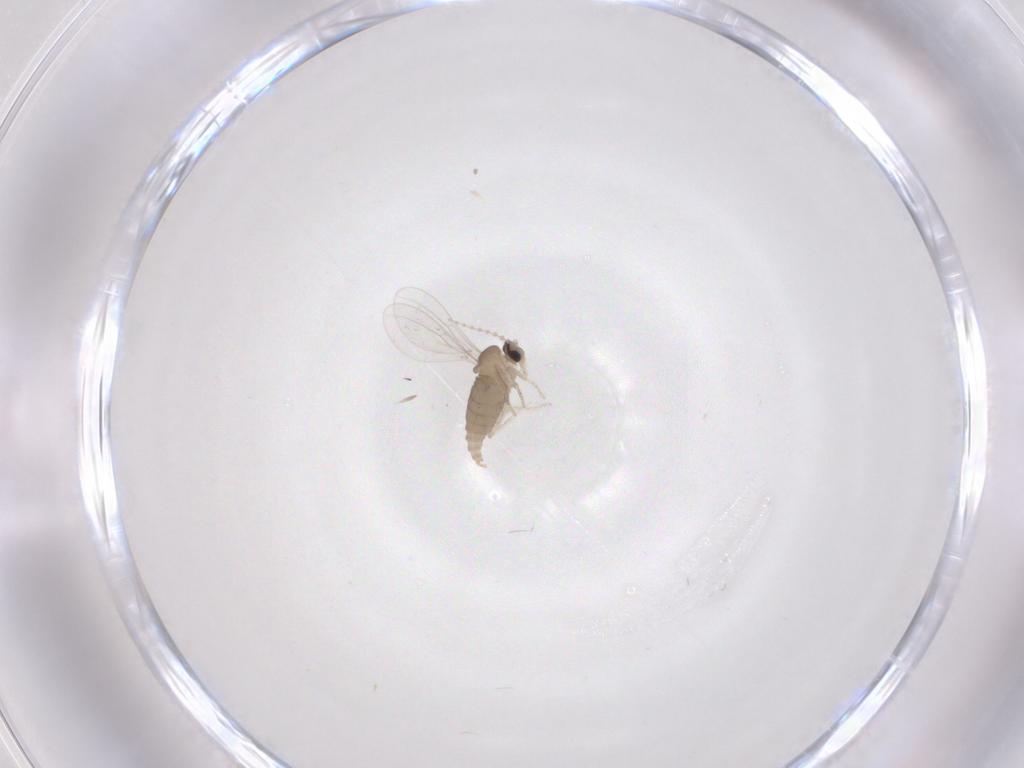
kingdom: Animalia
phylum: Arthropoda
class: Insecta
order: Diptera
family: Cecidomyiidae
